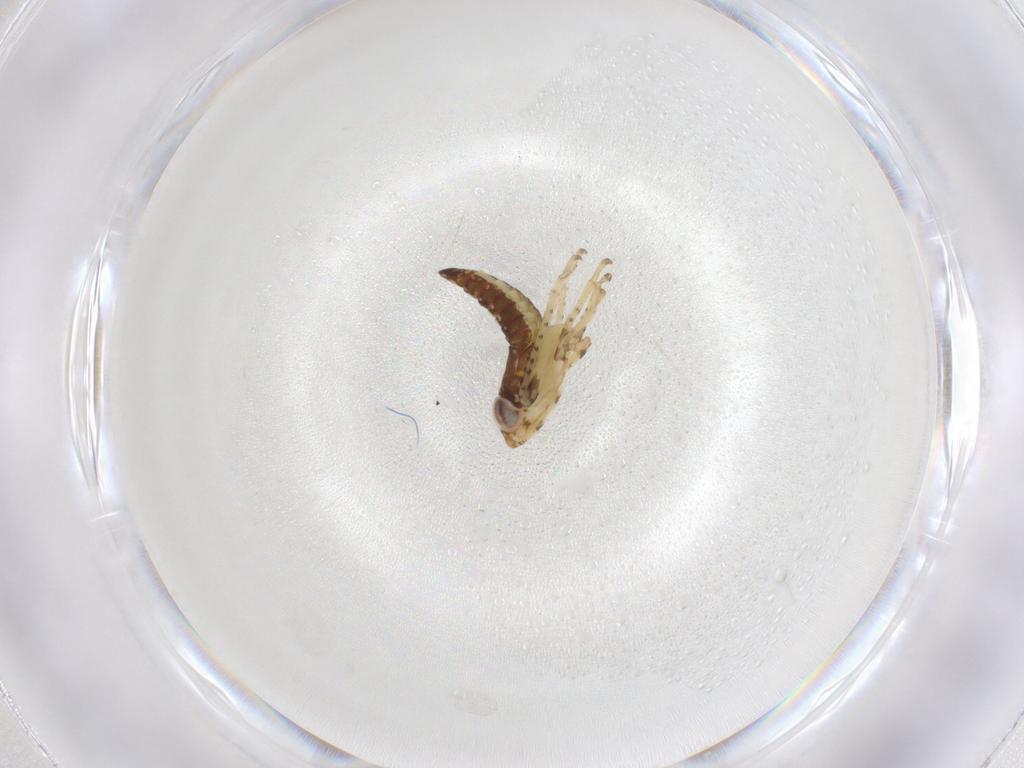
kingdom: Animalia
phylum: Arthropoda
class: Insecta
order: Hemiptera
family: Cicadellidae
